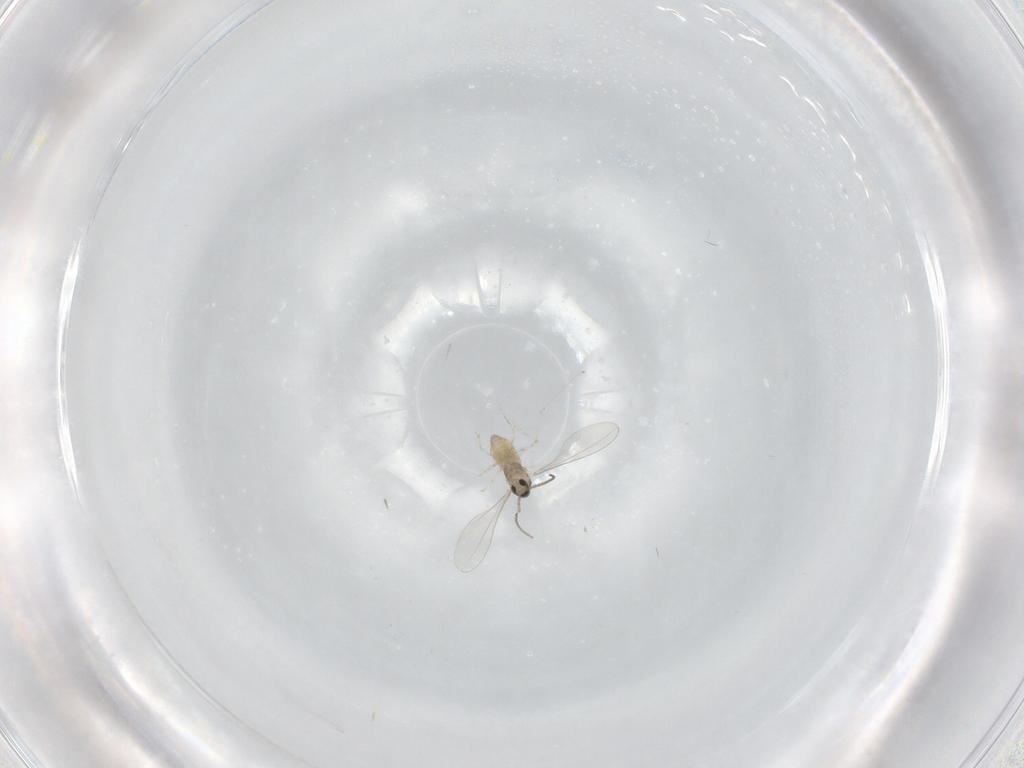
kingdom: Animalia
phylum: Arthropoda
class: Insecta
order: Diptera
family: Cecidomyiidae
